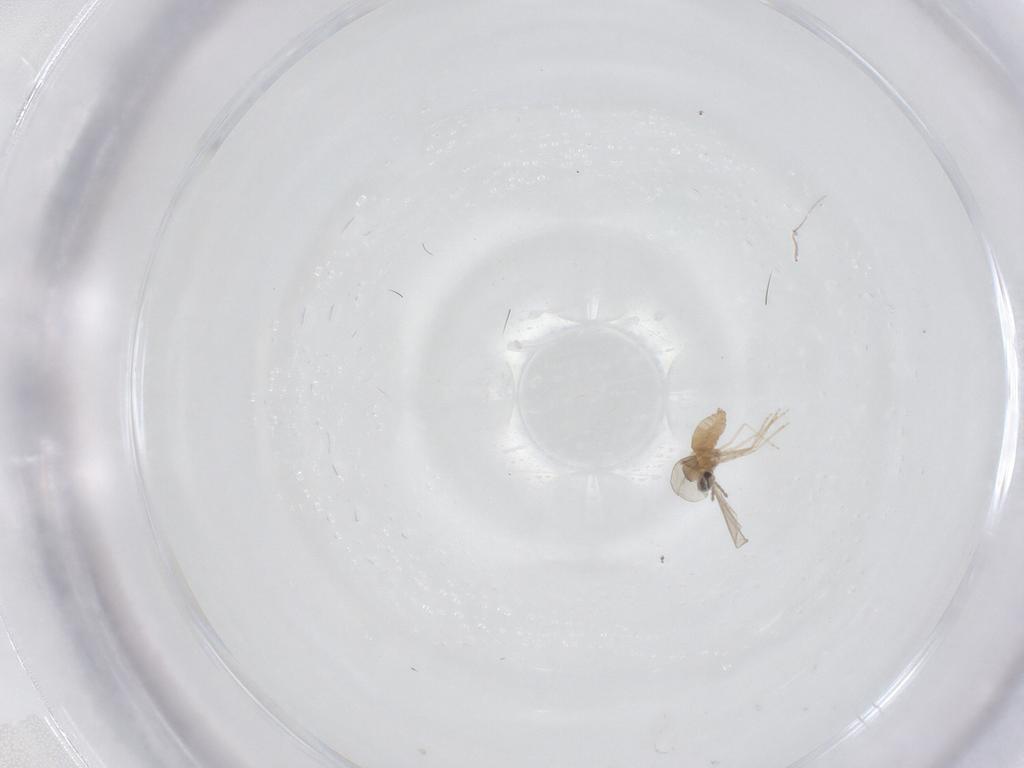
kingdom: Animalia
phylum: Arthropoda
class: Insecta
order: Diptera
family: Cecidomyiidae
